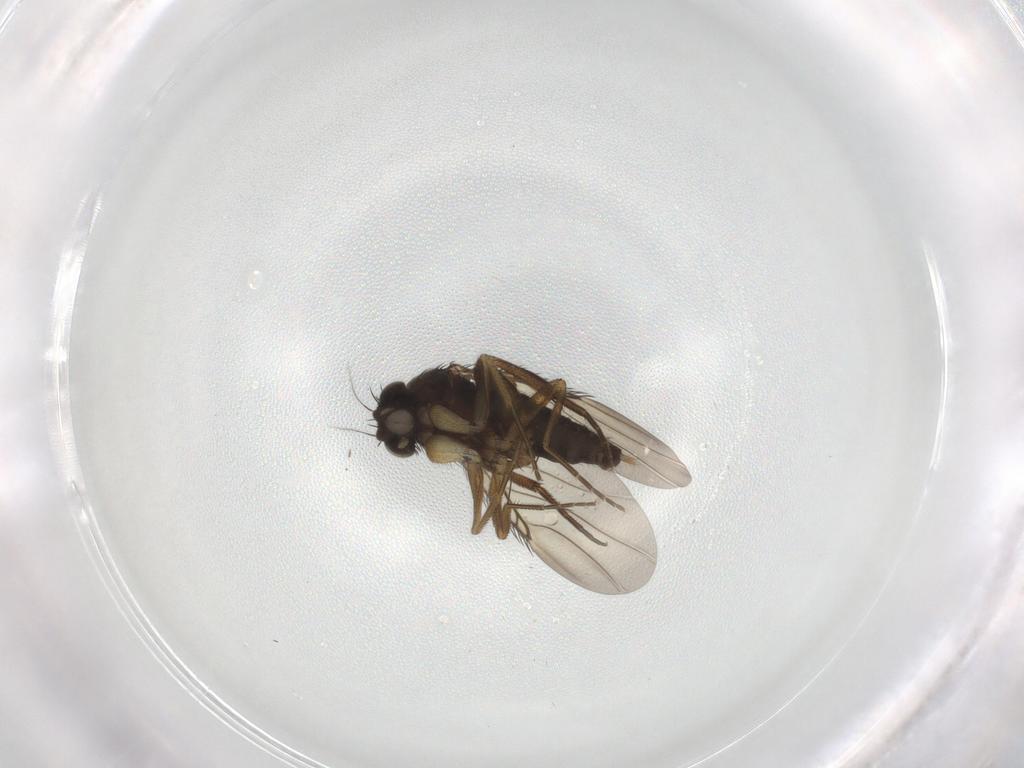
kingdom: Animalia
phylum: Arthropoda
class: Insecta
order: Diptera
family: Phoridae
